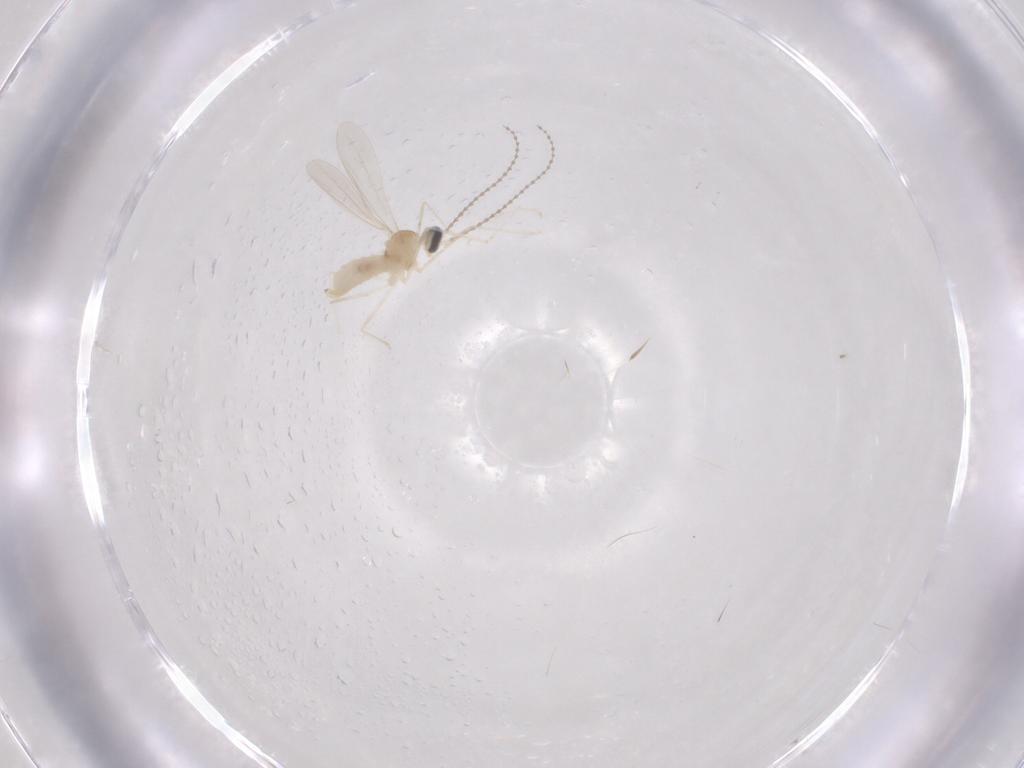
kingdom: Animalia
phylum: Arthropoda
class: Insecta
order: Diptera
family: Cecidomyiidae
